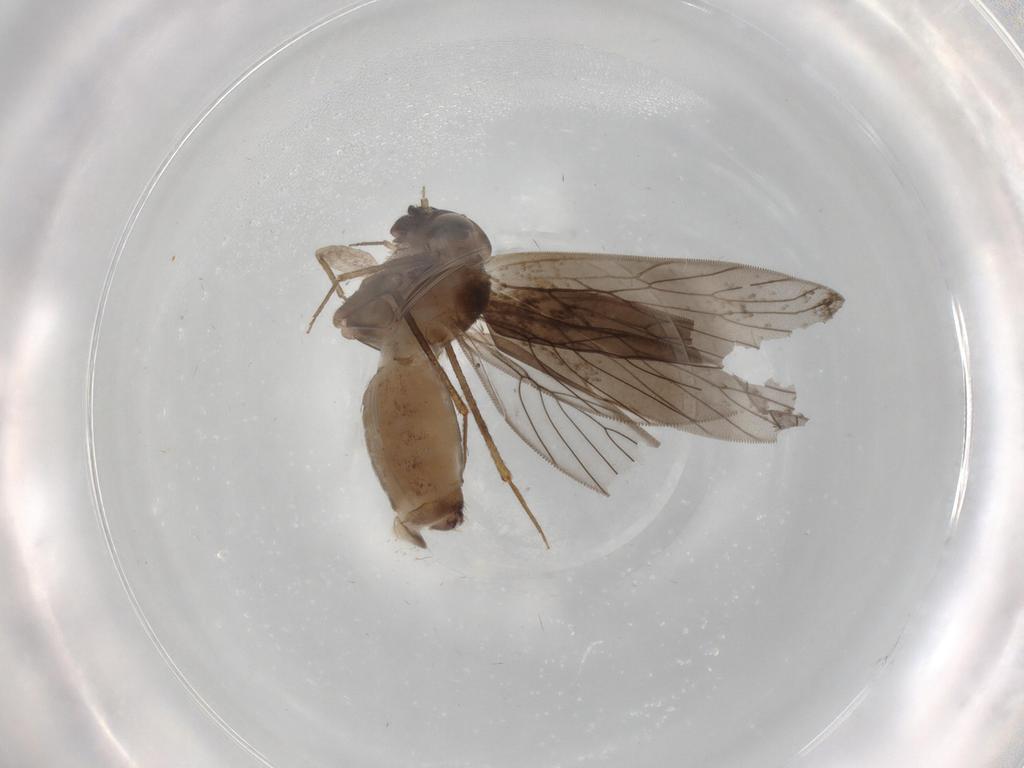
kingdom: Animalia
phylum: Arthropoda
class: Insecta
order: Psocodea
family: Lepidopsocidae
